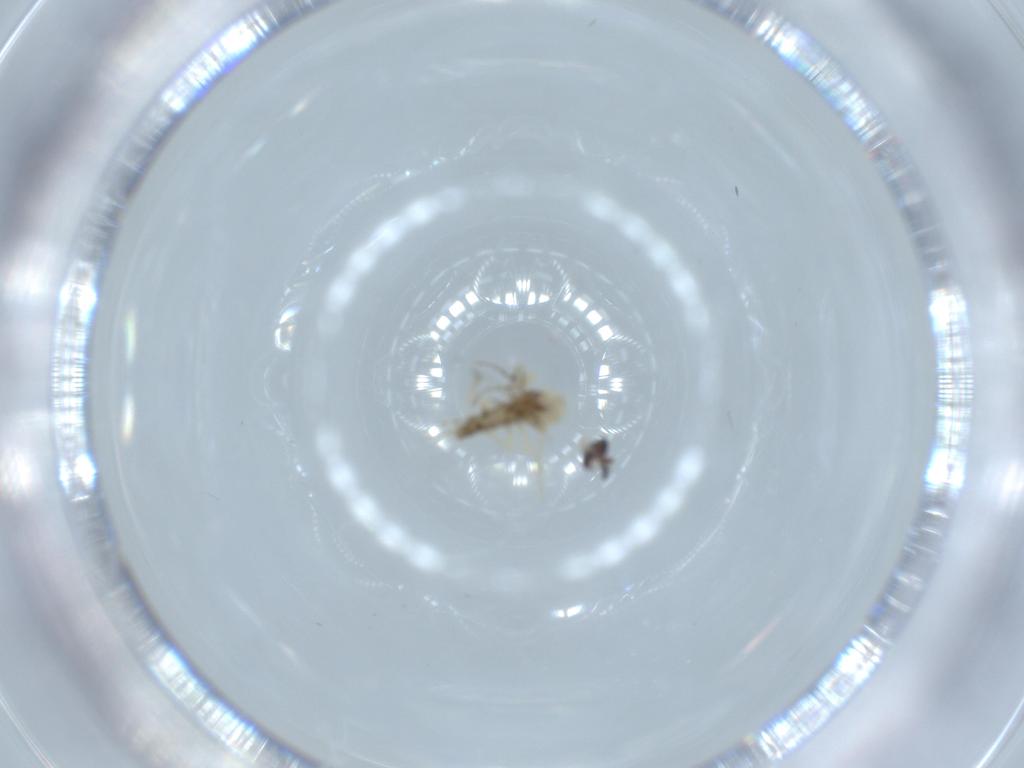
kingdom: Animalia
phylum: Arthropoda
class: Insecta
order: Diptera
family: Ceratopogonidae
